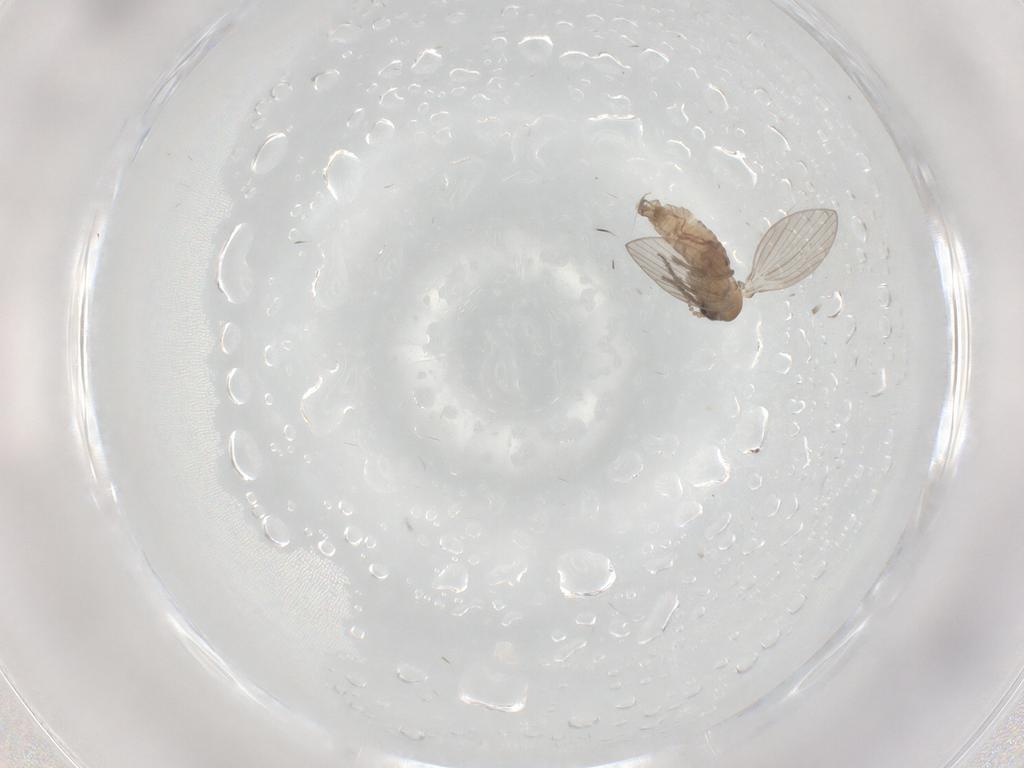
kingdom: Animalia
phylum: Arthropoda
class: Insecta
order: Diptera
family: Psychodidae
